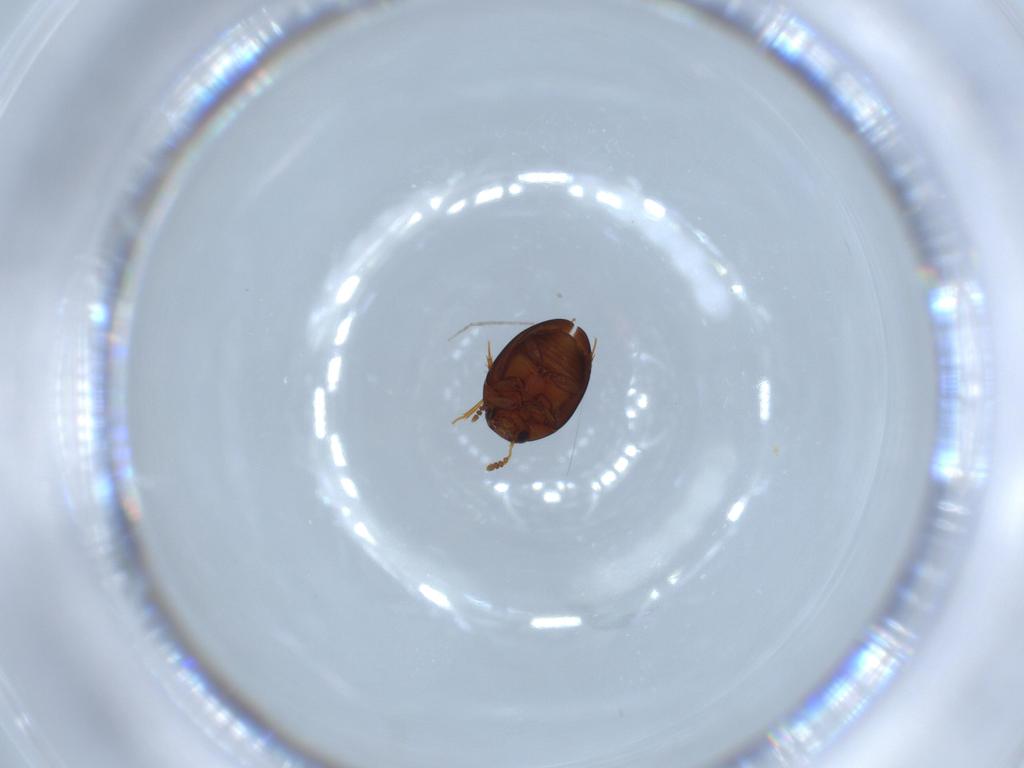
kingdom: Animalia
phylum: Arthropoda
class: Insecta
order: Coleoptera
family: Leiodidae
